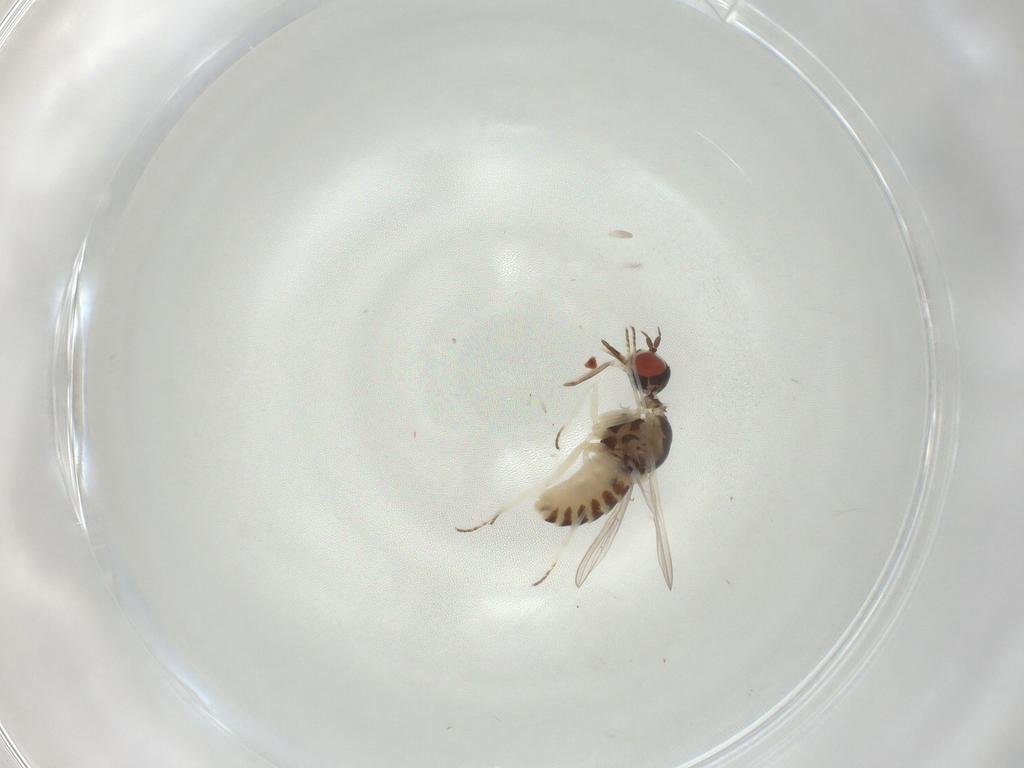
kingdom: Animalia
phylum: Arthropoda
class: Insecta
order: Diptera
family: Mythicomyiidae
